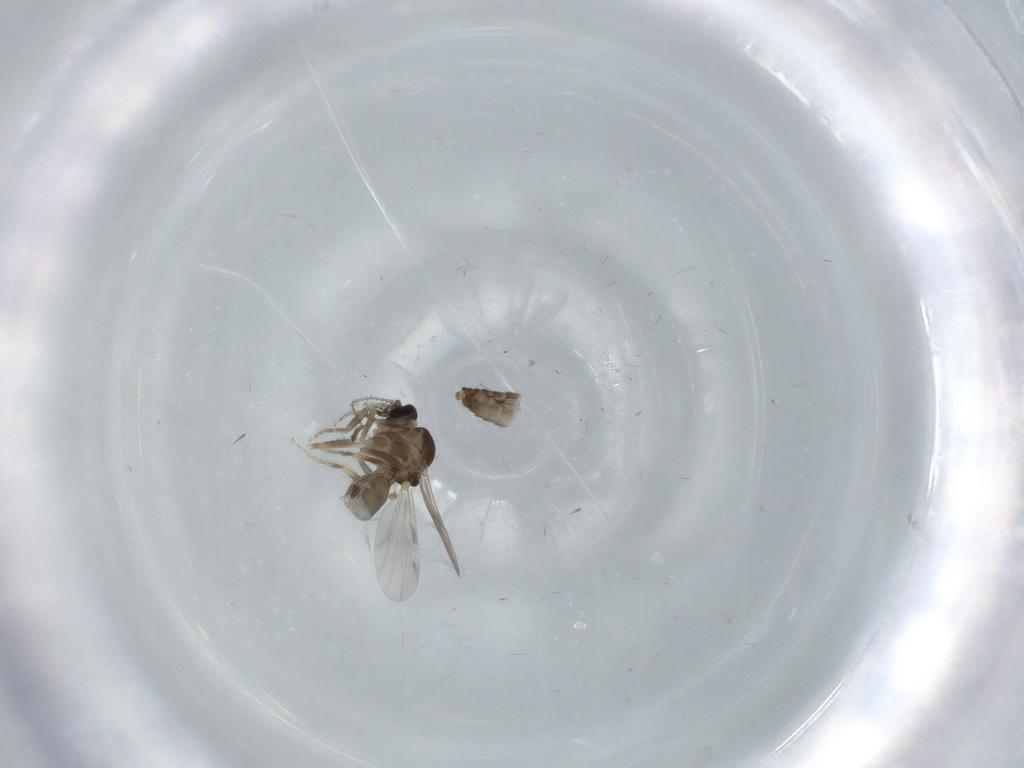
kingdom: Animalia
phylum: Arthropoda
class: Insecta
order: Diptera
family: Ceratopogonidae
